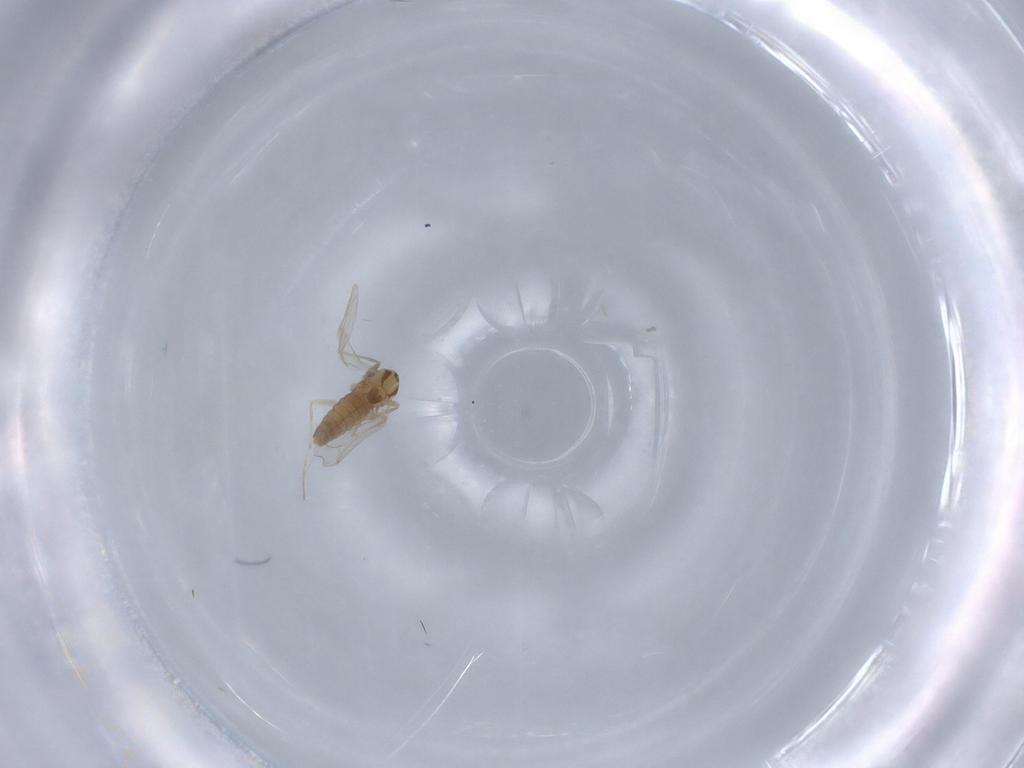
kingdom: Animalia
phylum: Arthropoda
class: Insecta
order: Diptera
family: Chironomidae
